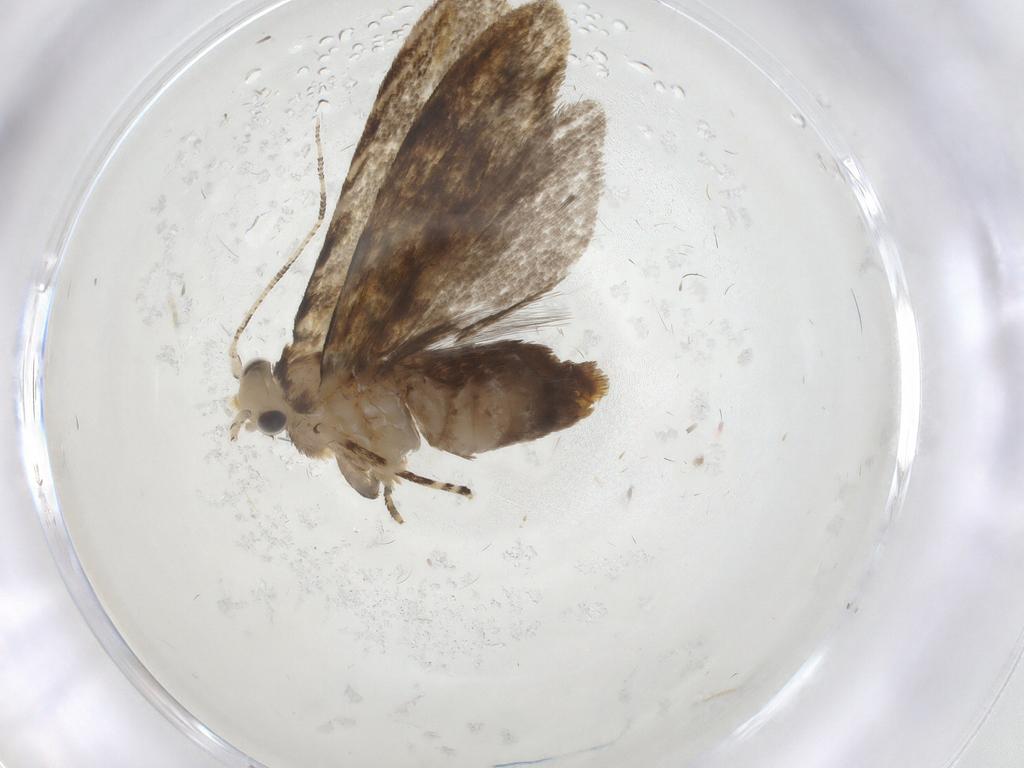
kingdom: Animalia
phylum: Arthropoda
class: Insecta
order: Lepidoptera
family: Tineidae
